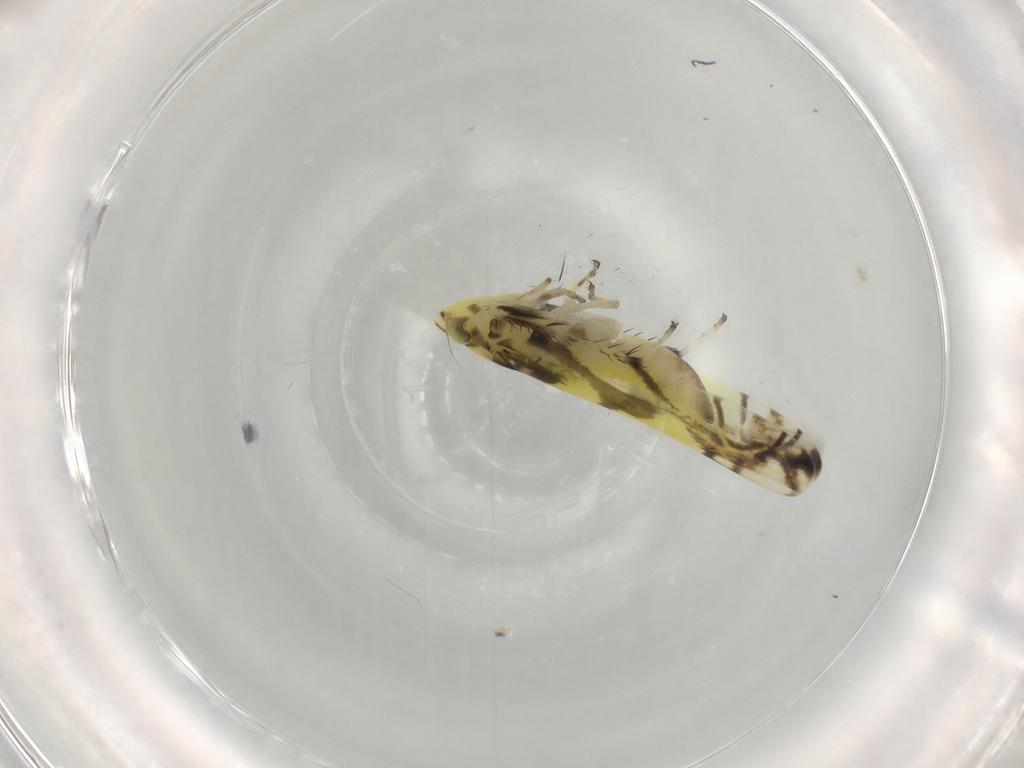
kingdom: Animalia
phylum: Arthropoda
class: Insecta
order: Hemiptera
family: Cicadellidae
